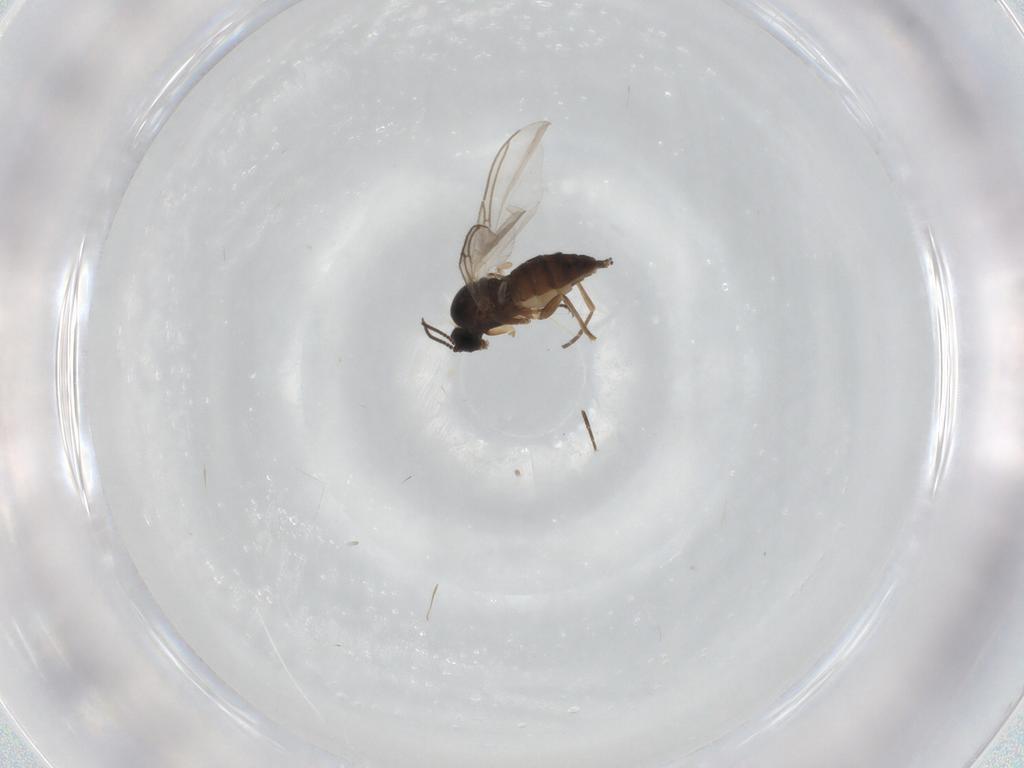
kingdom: Animalia
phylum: Arthropoda
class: Insecta
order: Diptera
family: Sciaridae
